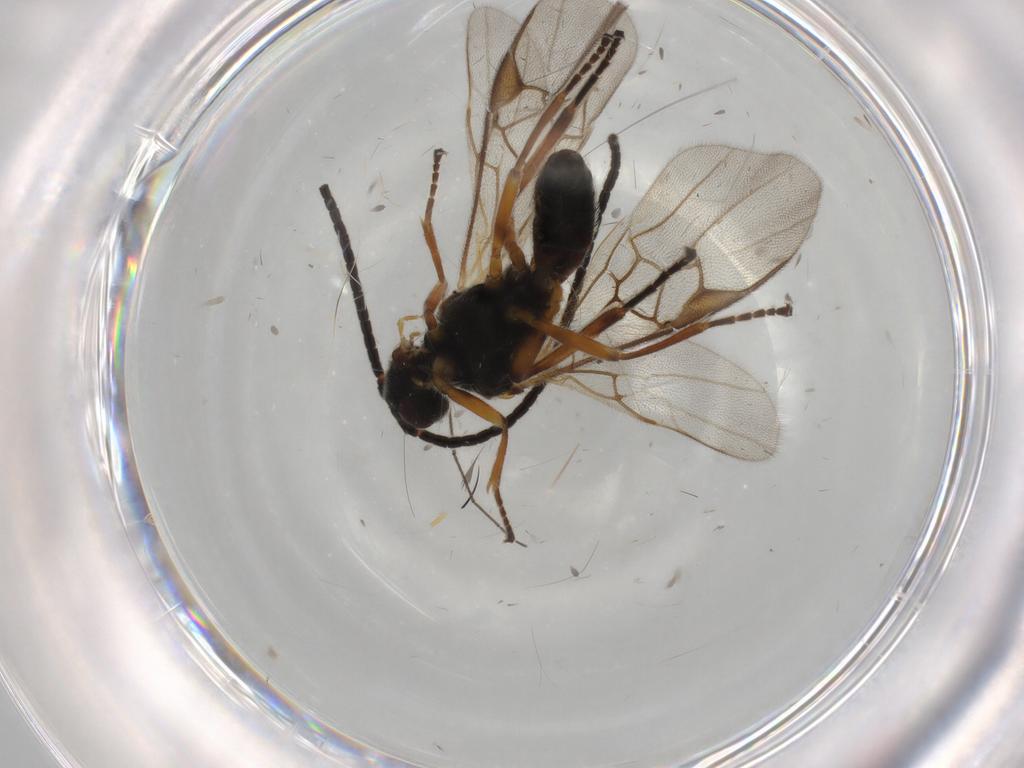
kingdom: Animalia
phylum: Arthropoda
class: Insecta
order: Hymenoptera
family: Braconidae
